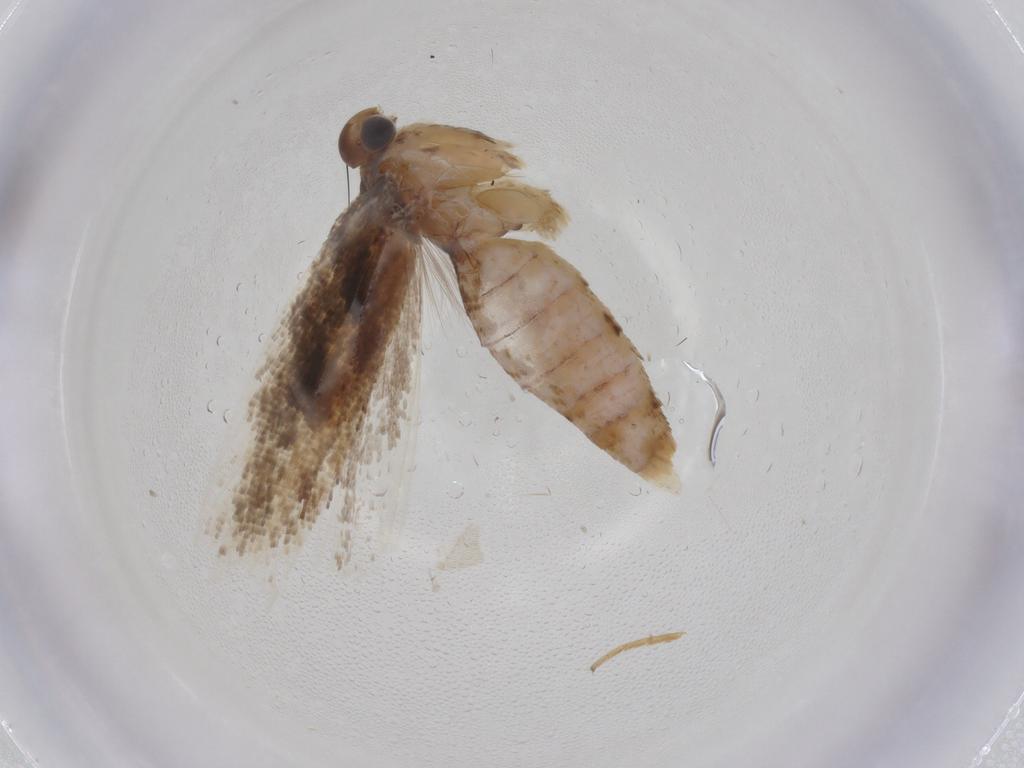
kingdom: Animalia
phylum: Arthropoda
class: Insecta
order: Lepidoptera
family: Gelechiidae
